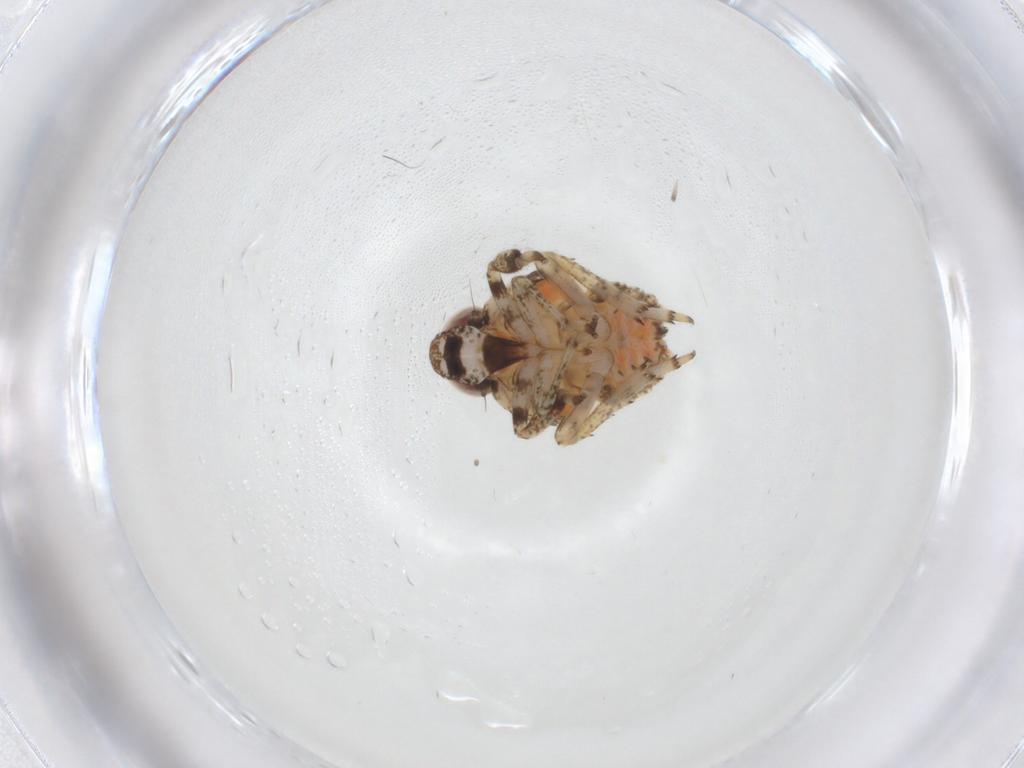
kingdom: Animalia
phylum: Arthropoda
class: Insecta
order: Hemiptera
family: Issidae
